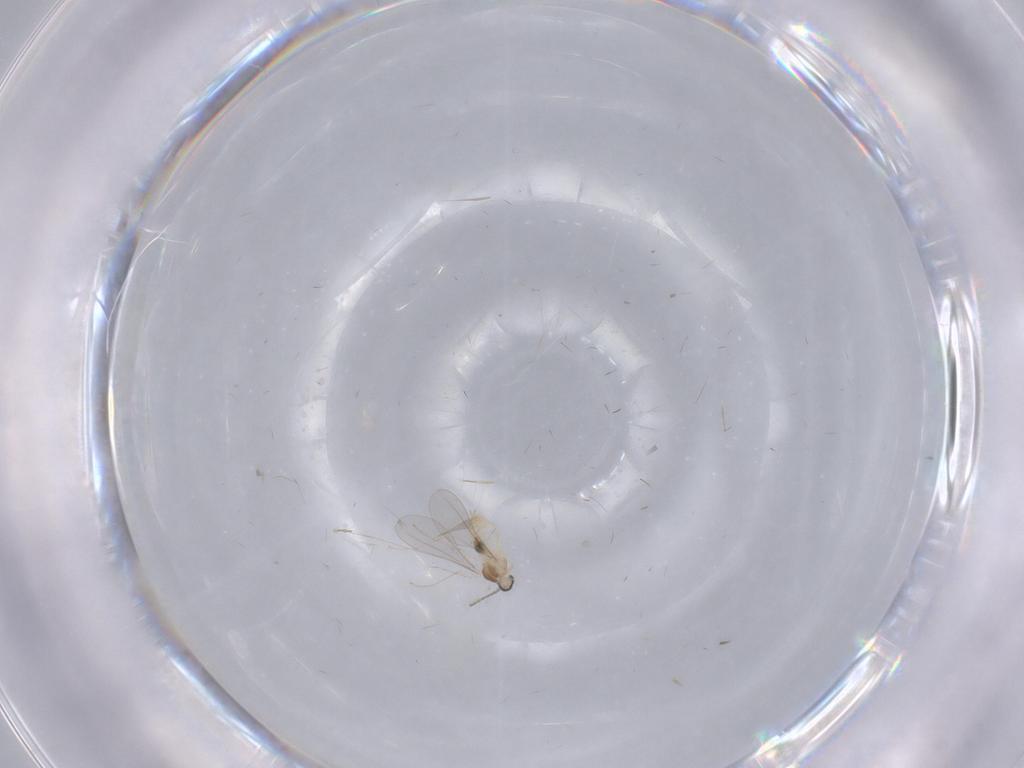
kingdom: Animalia
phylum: Arthropoda
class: Insecta
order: Diptera
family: Cecidomyiidae
